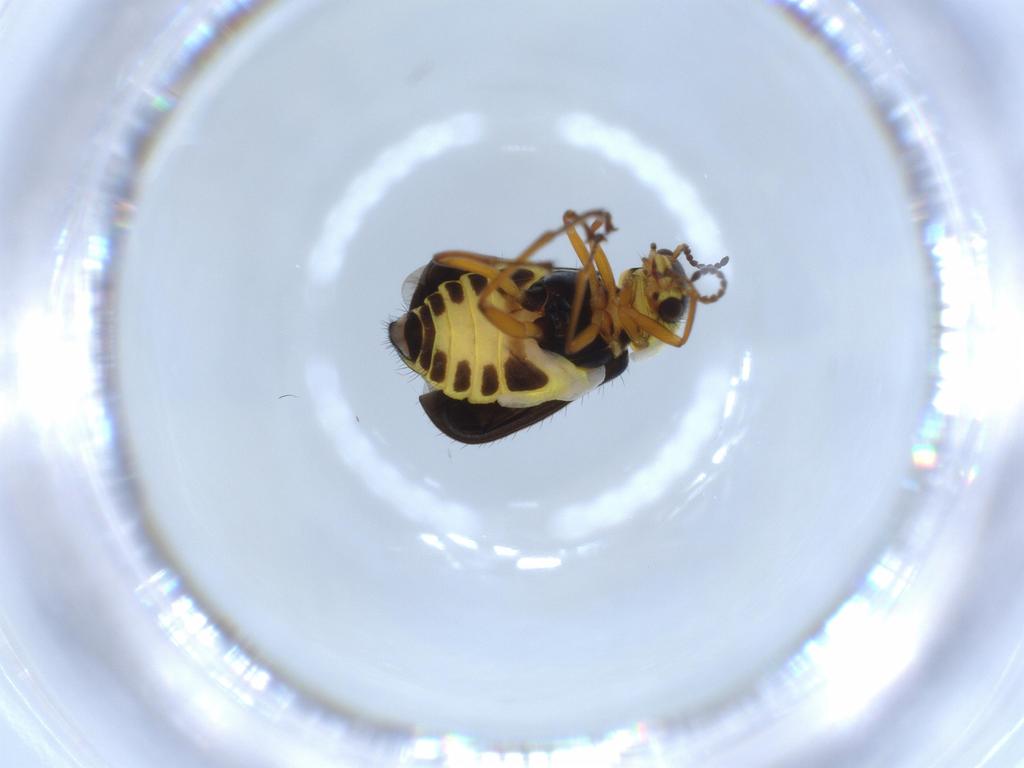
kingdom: Animalia
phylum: Arthropoda
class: Insecta
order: Coleoptera
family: Melyridae
